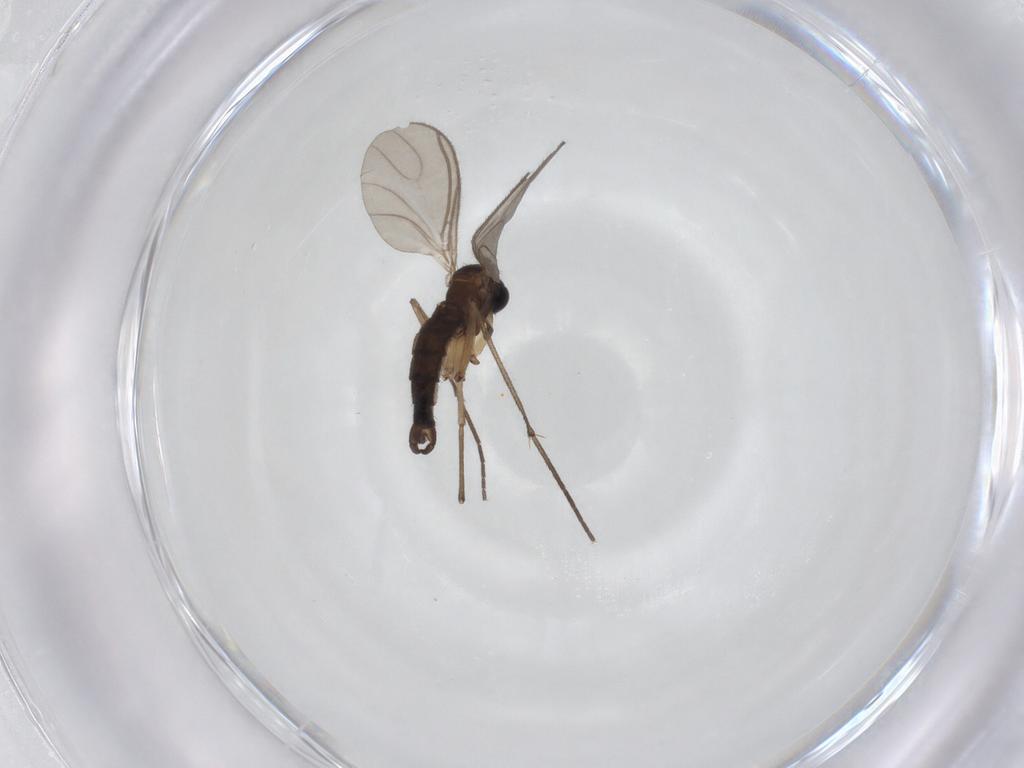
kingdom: Animalia
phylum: Arthropoda
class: Insecta
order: Diptera
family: Sciaridae
